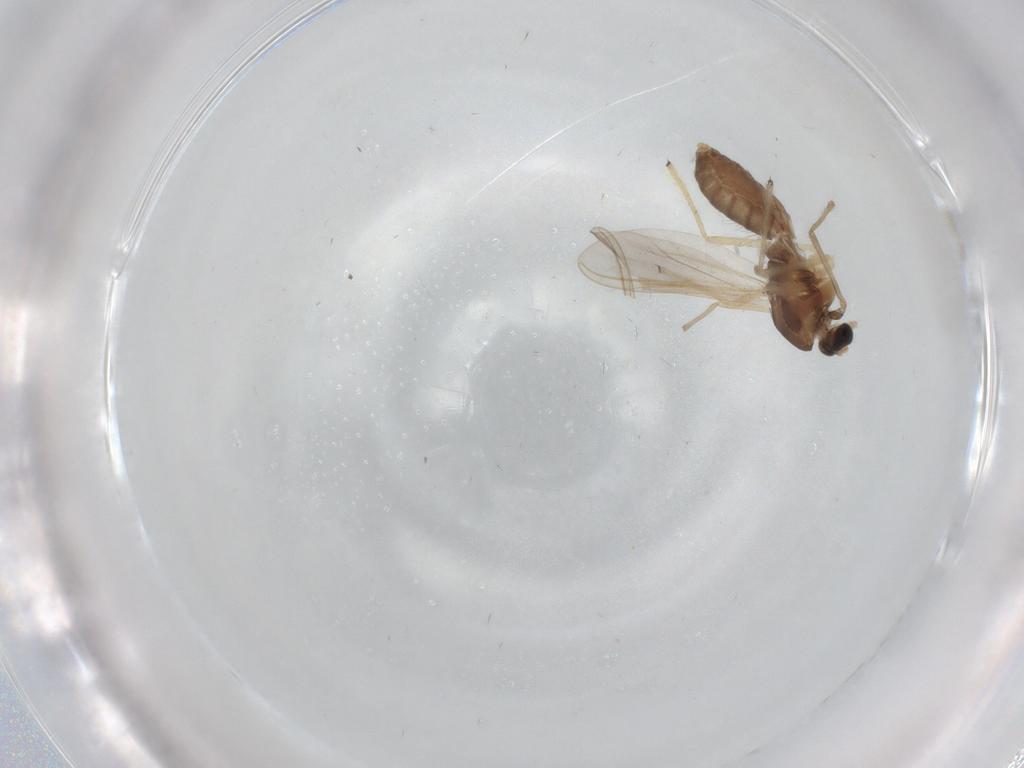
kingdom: Animalia
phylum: Arthropoda
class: Insecta
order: Diptera
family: Chironomidae
